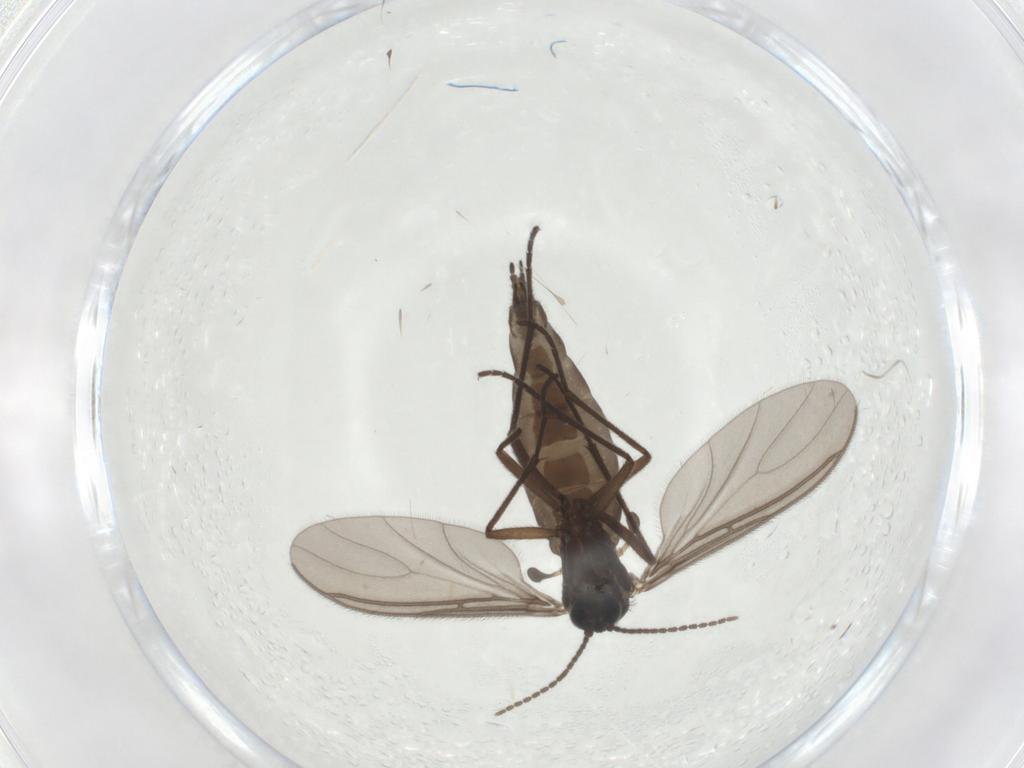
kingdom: Animalia
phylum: Arthropoda
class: Insecta
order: Diptera
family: Sciaridae
